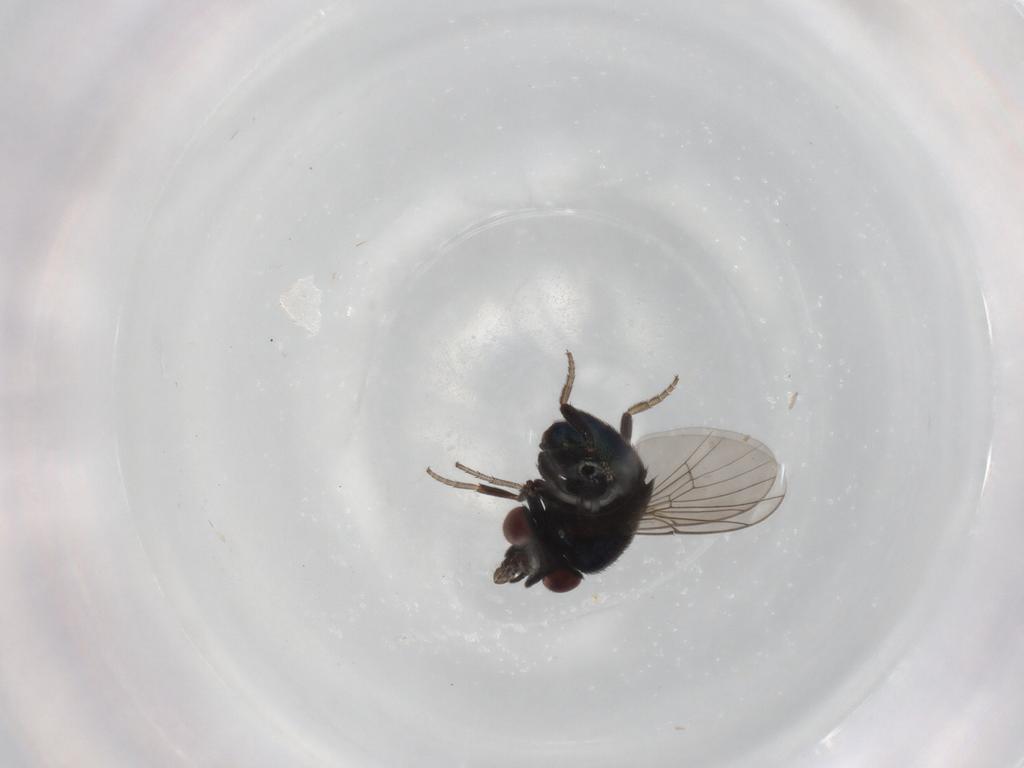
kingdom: Animalia
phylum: Arthropoda
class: Insecta
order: Diptera
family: Cryptochetidae
